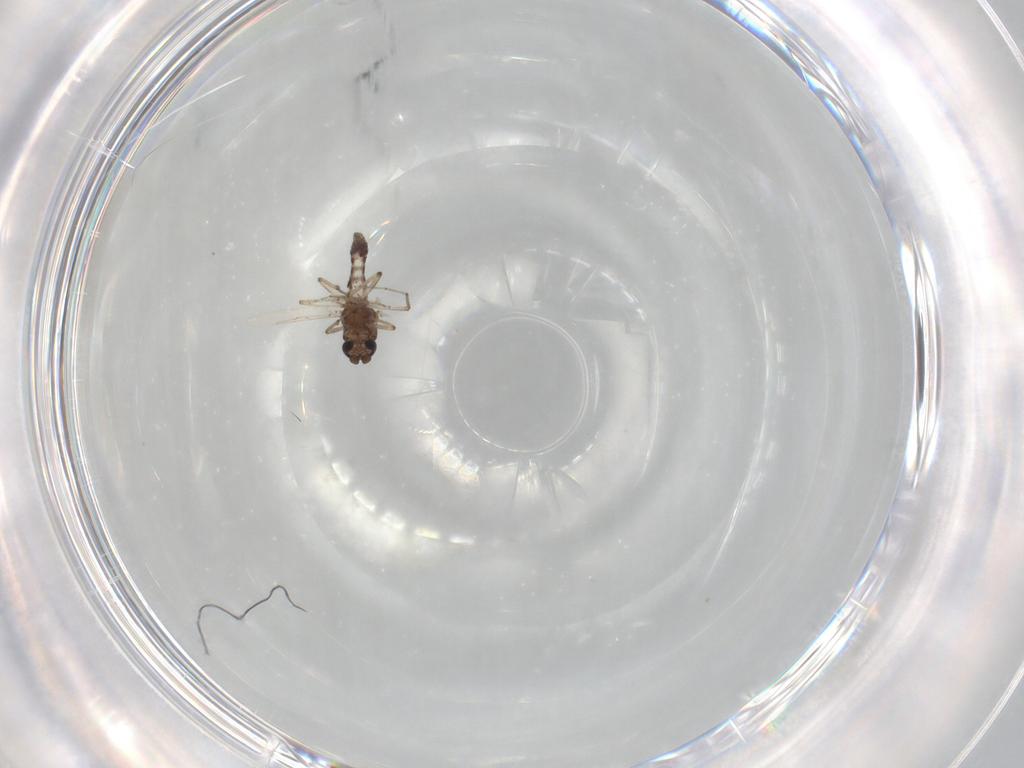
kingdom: Animalia
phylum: Arthropoda
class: Insecta
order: Diptera
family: Ceratopogonidae
